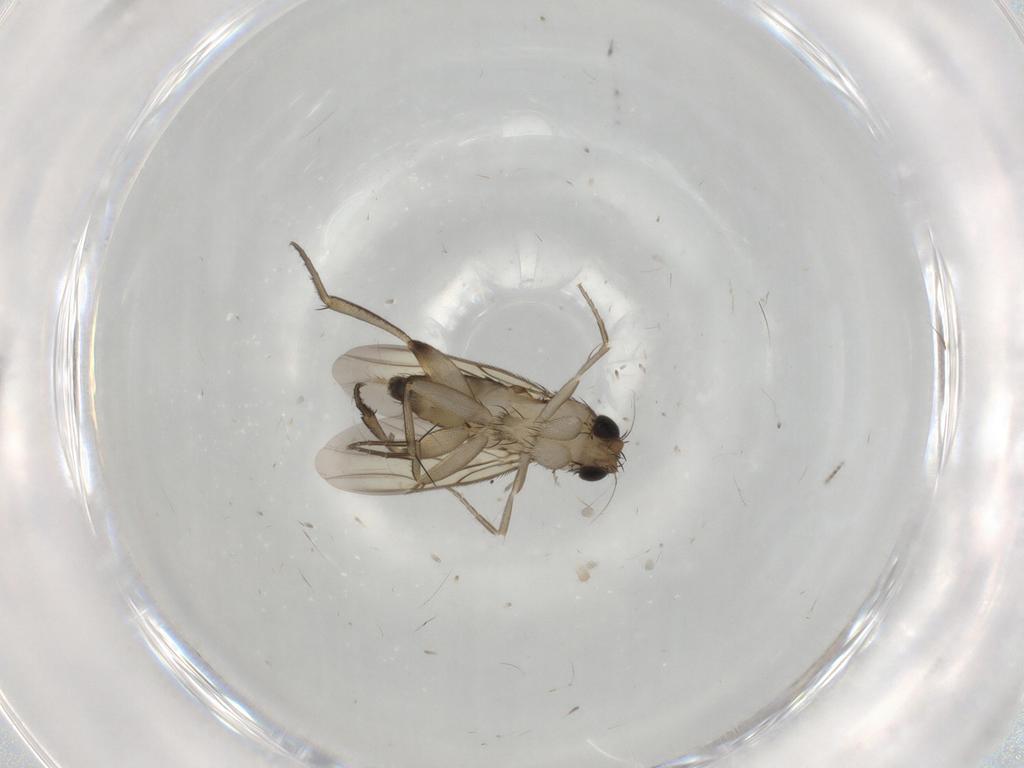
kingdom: Animalia
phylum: Arthropoda
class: Insecta
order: Diptera
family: Phoridae
